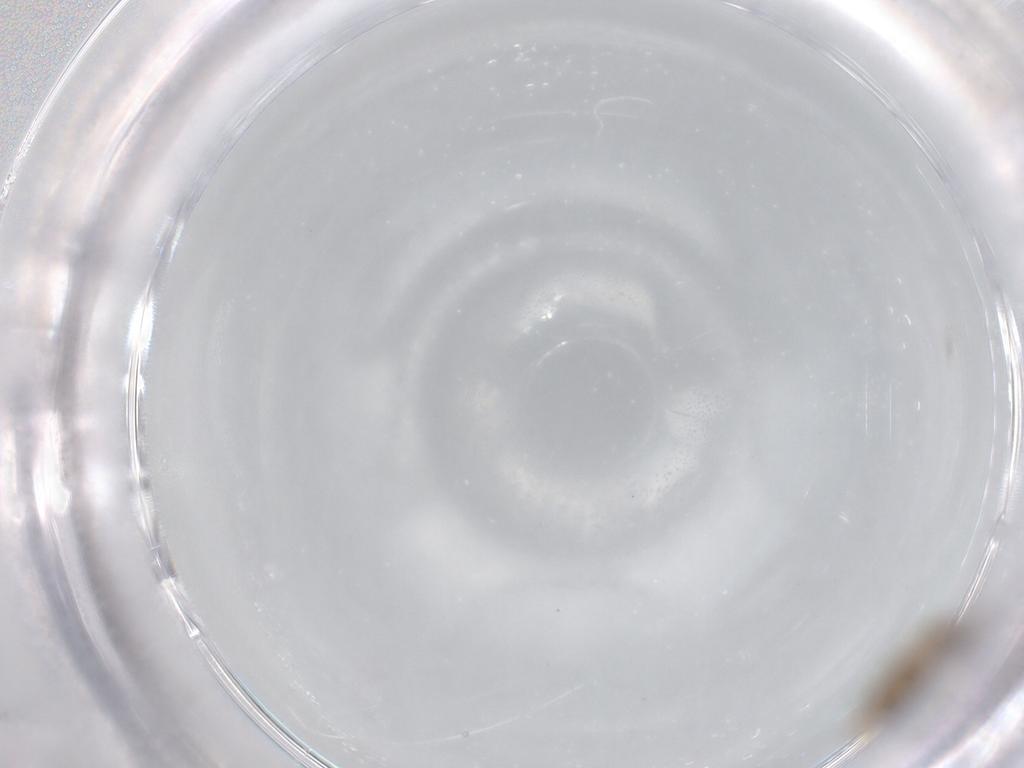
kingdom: Animalia
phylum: Arthropoda
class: Insecta
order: Diptera
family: Psychodidae
